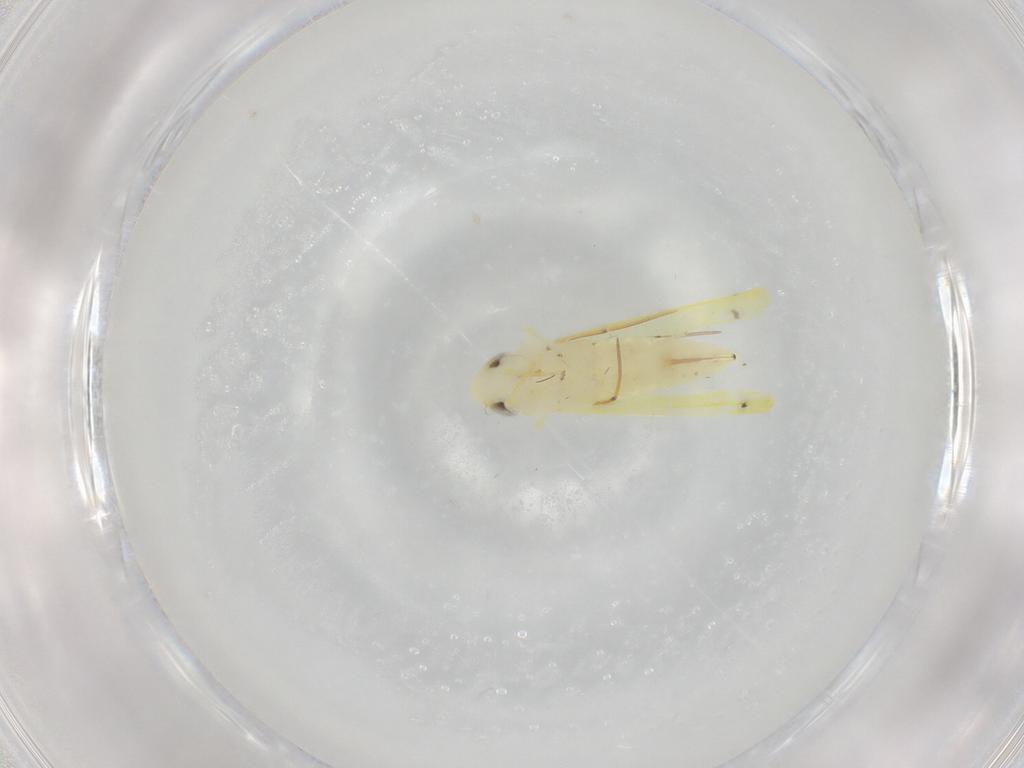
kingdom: Animalia
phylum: Arthropoda
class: Insecta
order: Hemiptera
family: Cicadellidae
